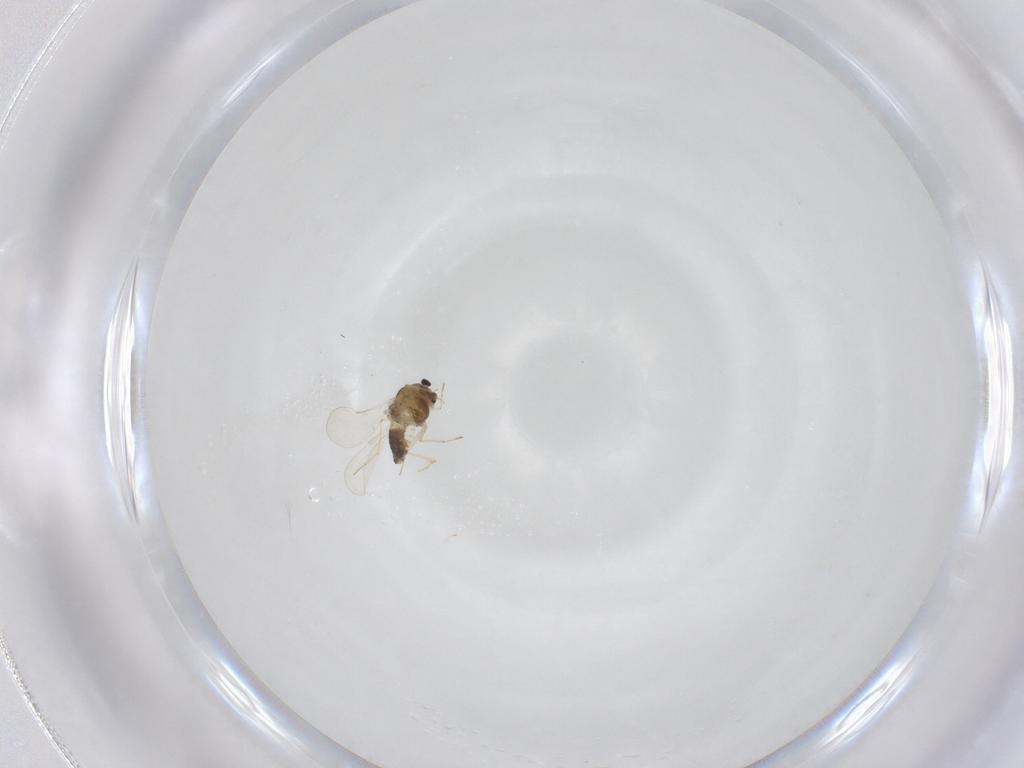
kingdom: Animalia
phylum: Arthropoda
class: Insecta
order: Diptera
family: Chironomidae
